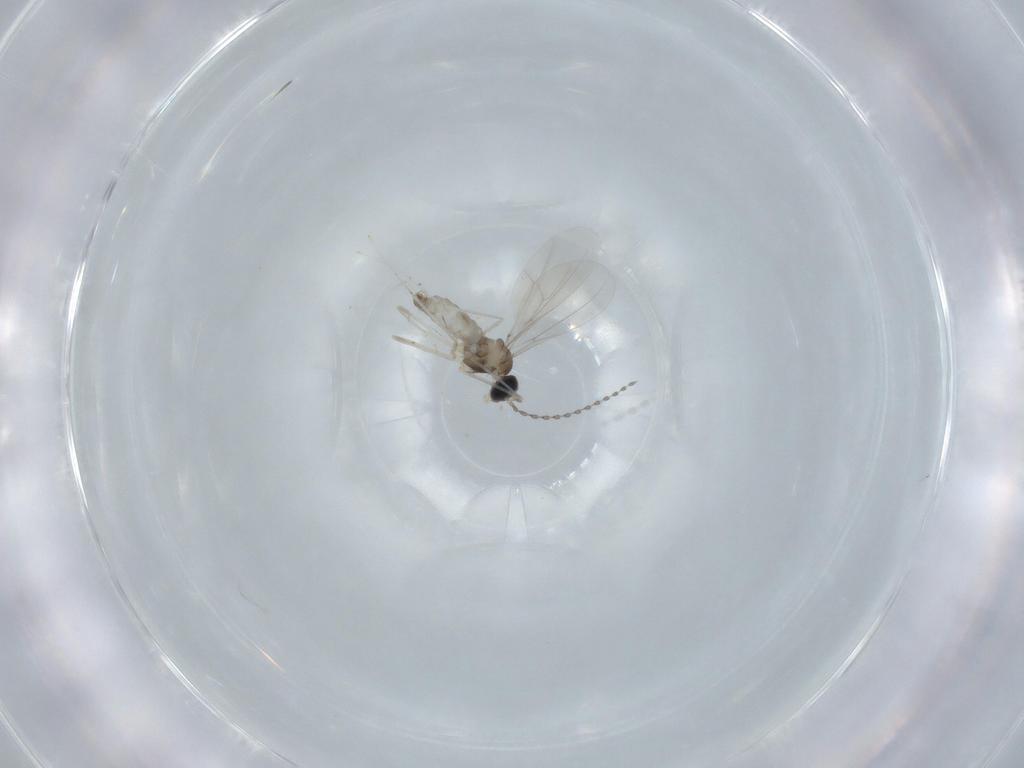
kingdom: Animalia
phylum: Arthropoda
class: Insecta
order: Diptera
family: Cecidomyiidae
